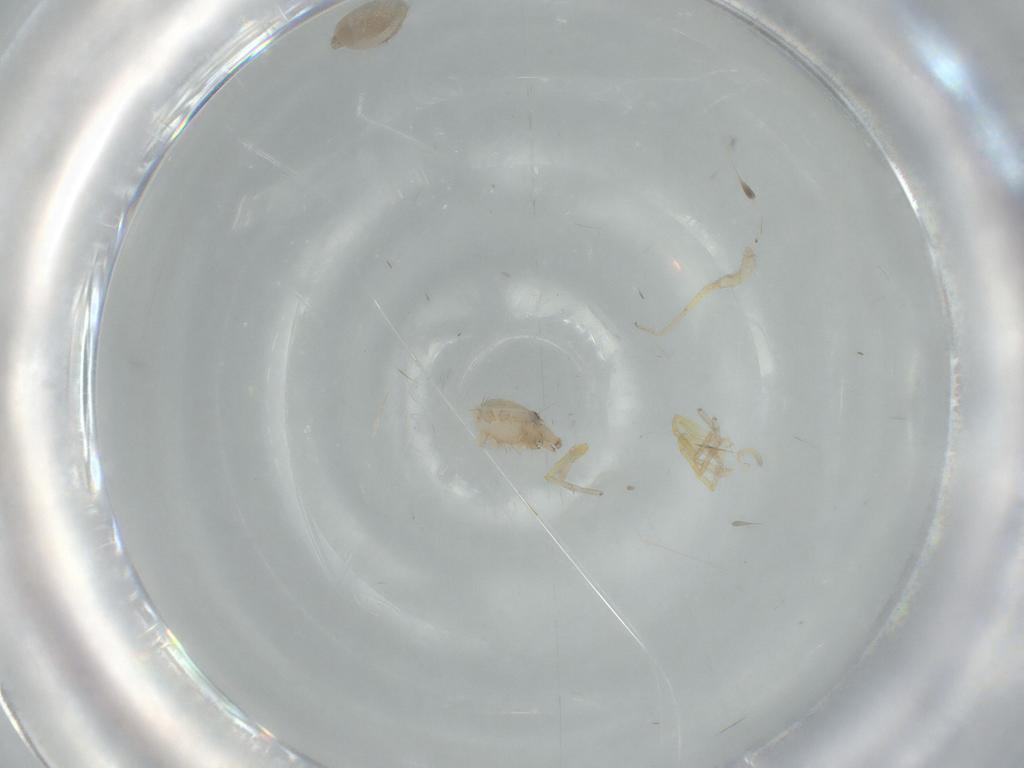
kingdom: Animalia
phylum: Arthropoda
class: Arachnida
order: Araneae
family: Oonopidae
